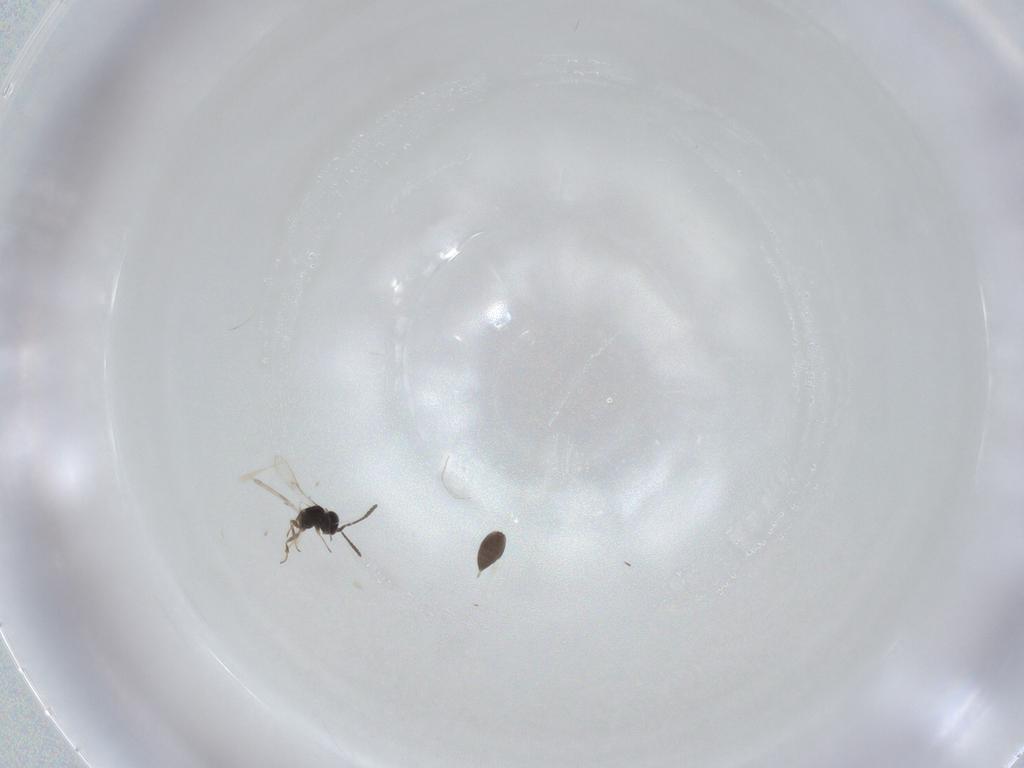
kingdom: Animalia
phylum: Arthropoda
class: Insecta
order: Hymenoptera
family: Scelionidae
